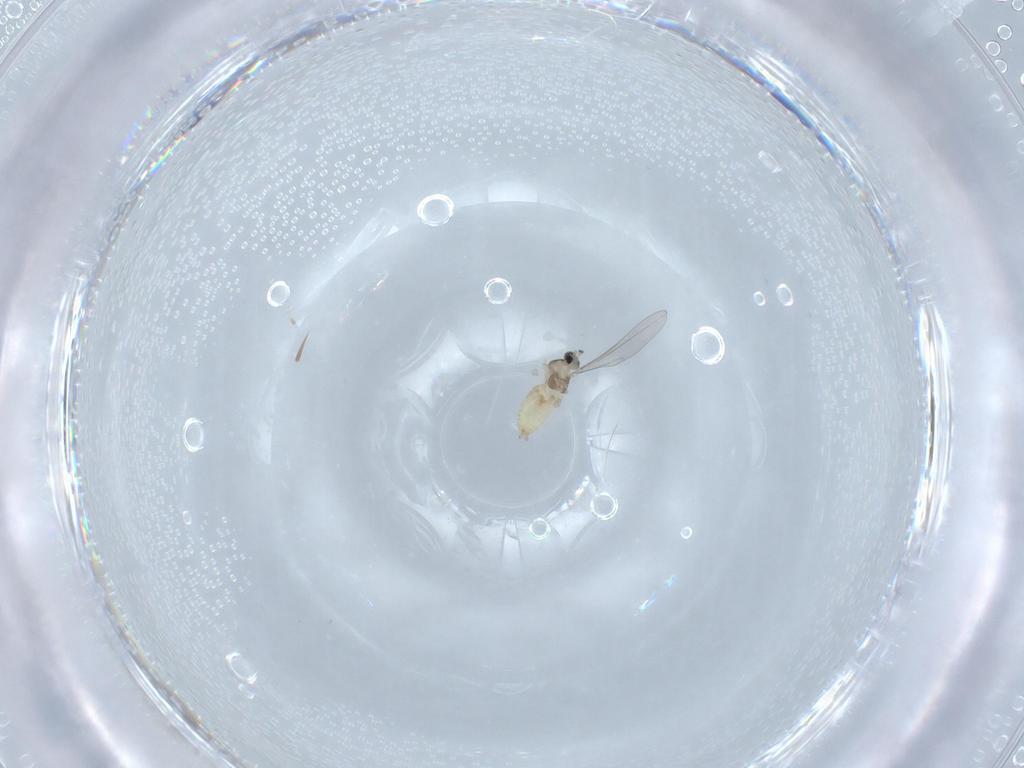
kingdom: Animalia
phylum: Arthropoda
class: Insecta
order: Diptera
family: Cecidomyiidae
